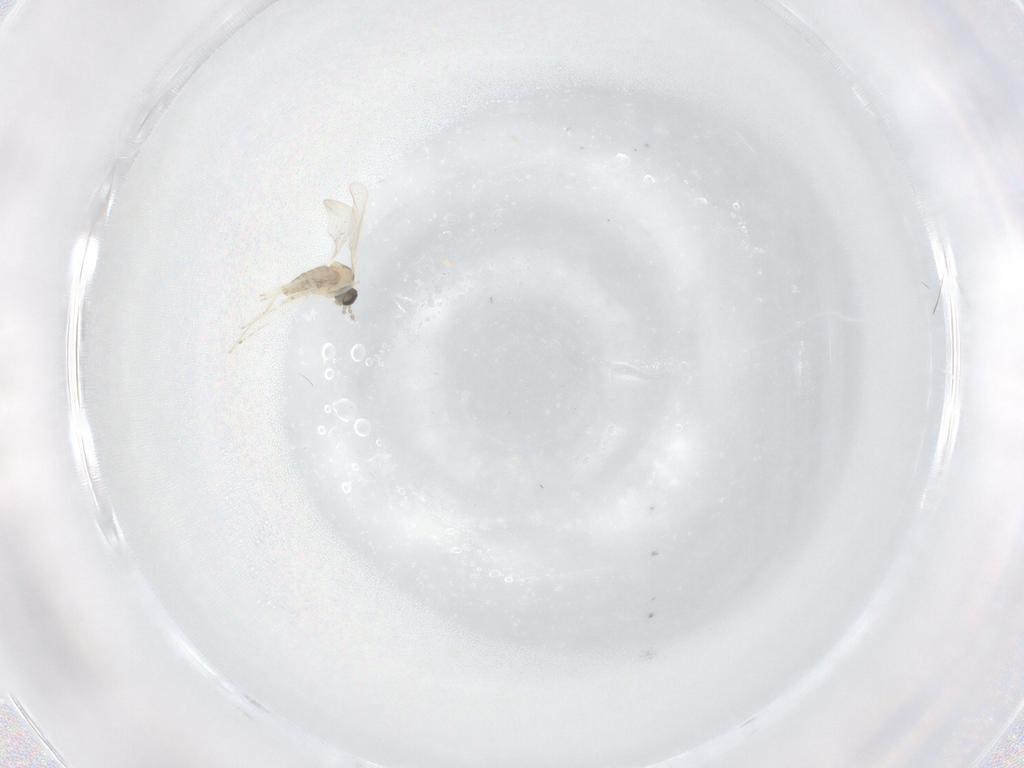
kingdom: Animalia
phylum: Arthropoda
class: Insecta
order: Diptera
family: Cecidomyiidae
